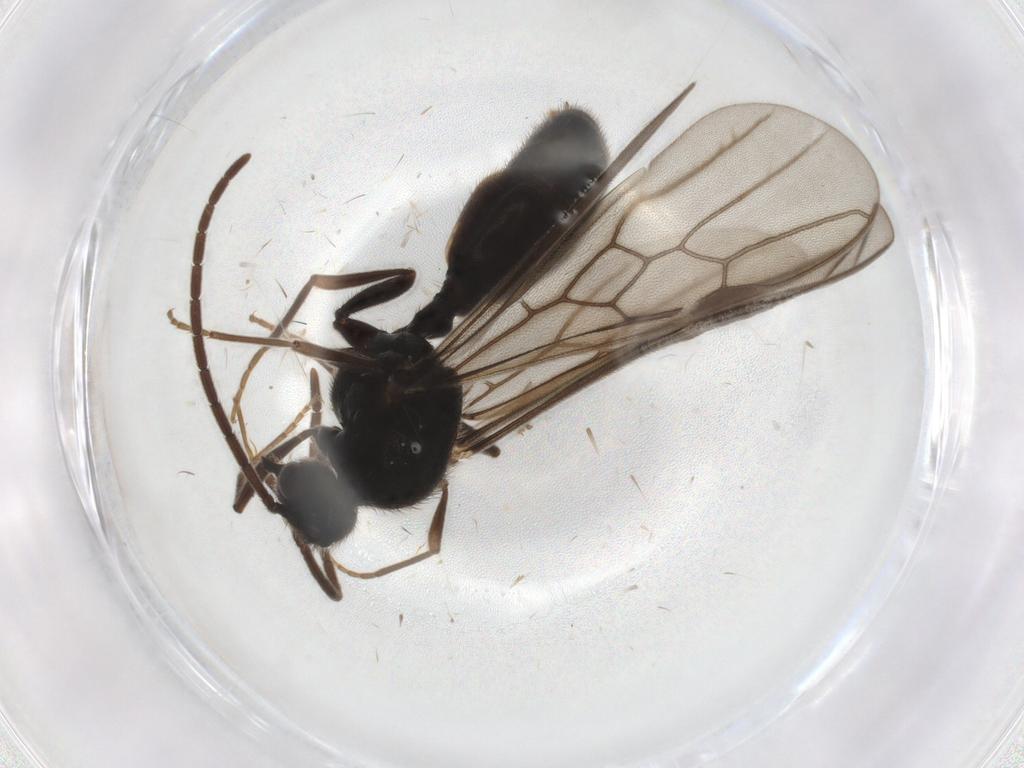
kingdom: Animalia
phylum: Arthropoda
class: Insecta
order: Hymenoptera
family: Formicidae
